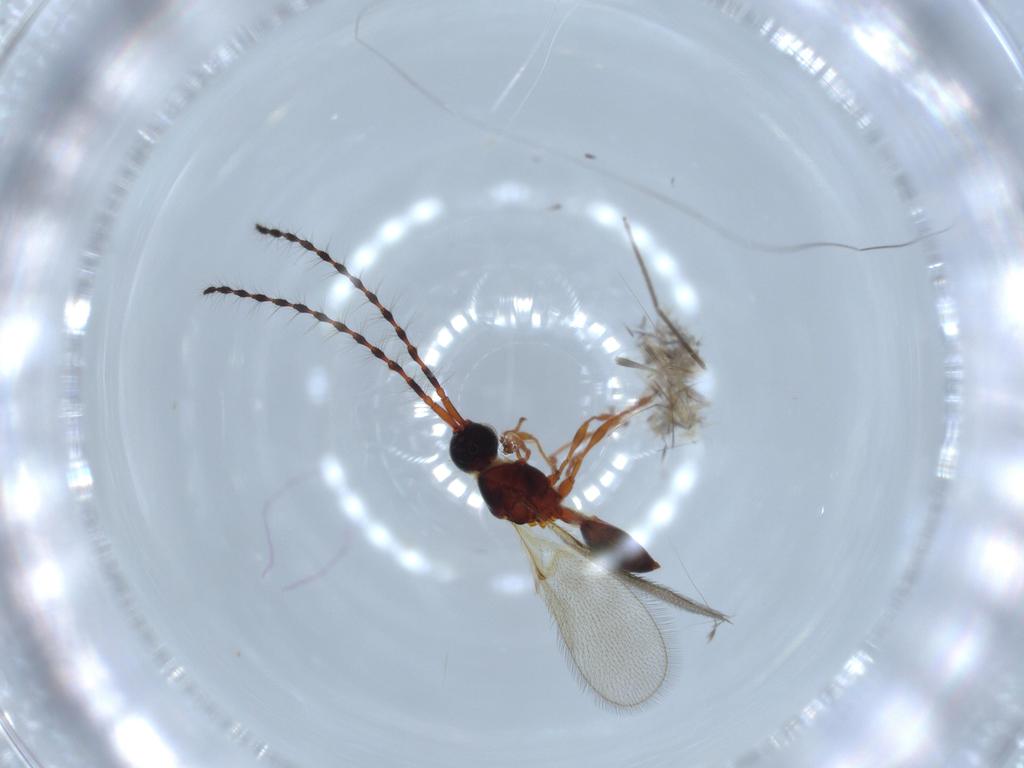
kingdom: Animalia
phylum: Arthropoda
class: Insecta
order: Hymenoptera
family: Diapriidae
